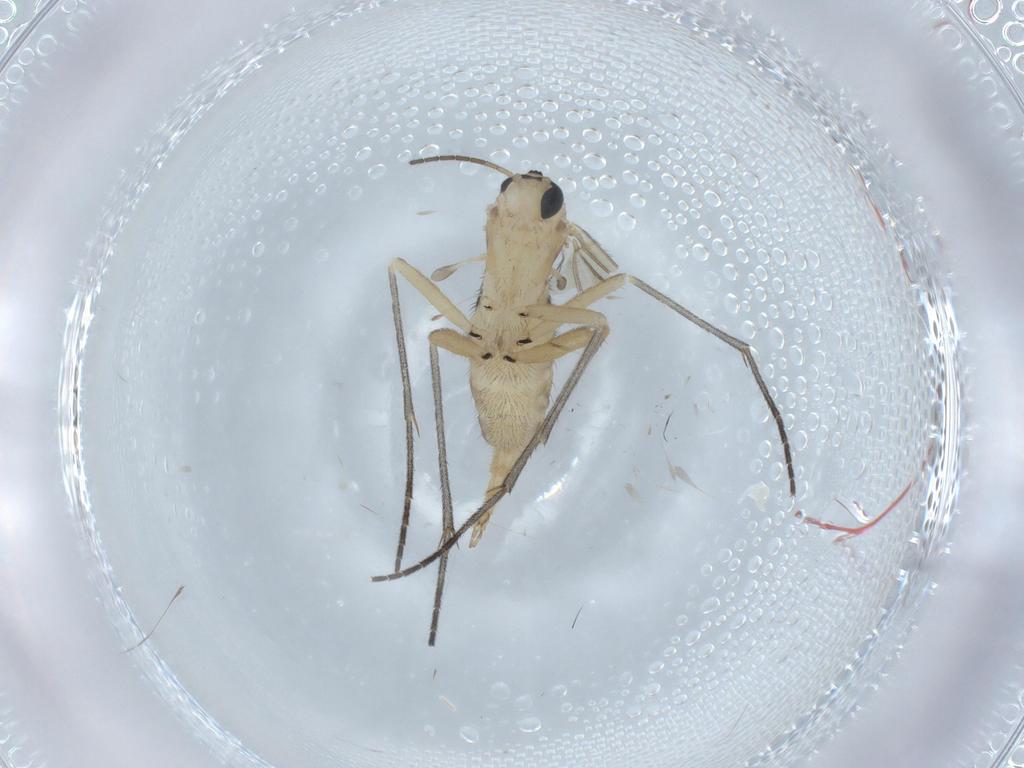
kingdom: Animalia
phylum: Arthropoda
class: Insecta
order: Diptera
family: Sciaridae
